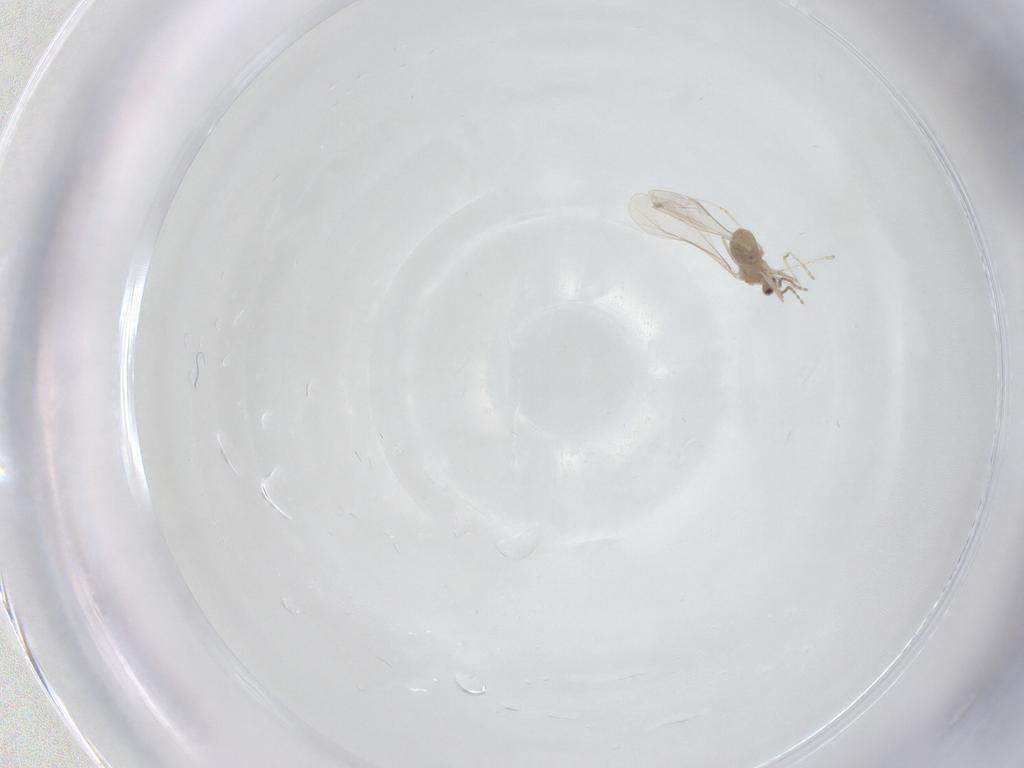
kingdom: Animalia
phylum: Arthropoda
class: Insecta
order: Diptera
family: Cecidomyiidae
